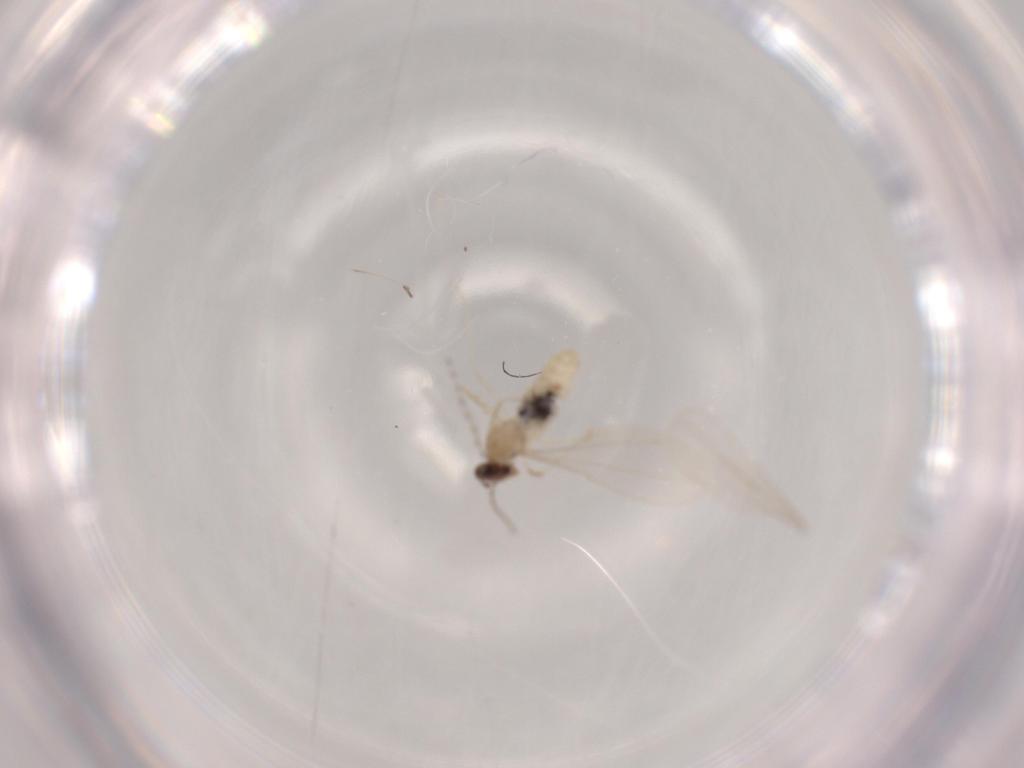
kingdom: Animalia
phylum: Arthropoda
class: Insecta
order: Diptera
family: Cecidomyiidae
